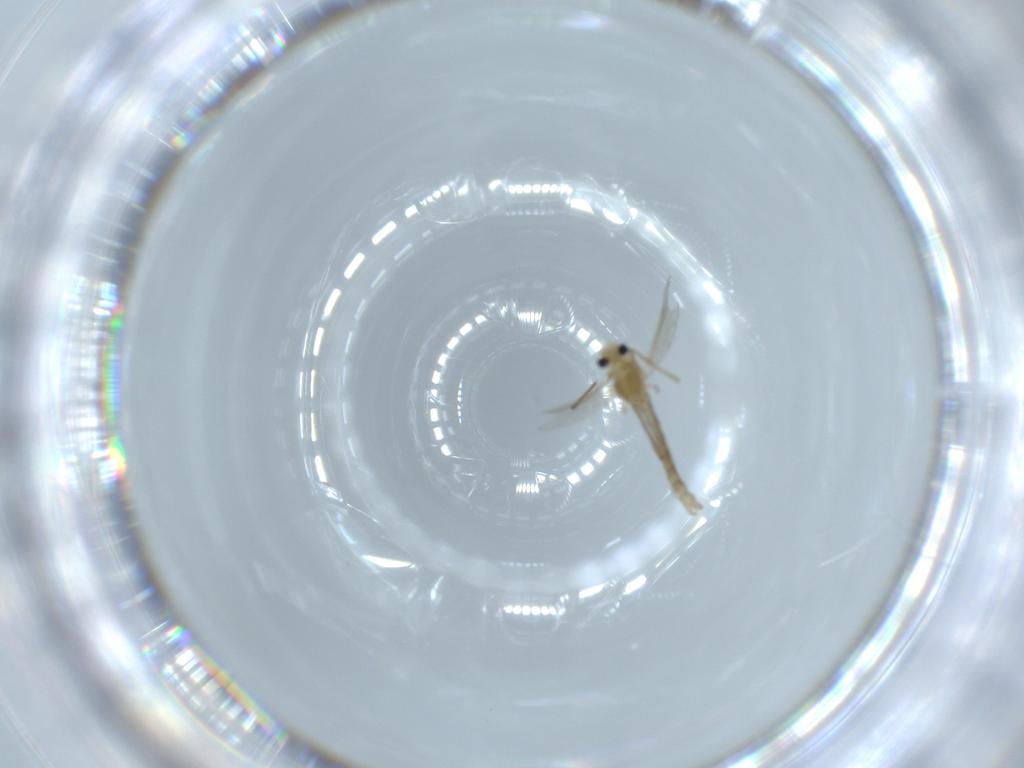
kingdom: Animalia
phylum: Arthropoda
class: Insecta
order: Diptera
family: Chironomidae
